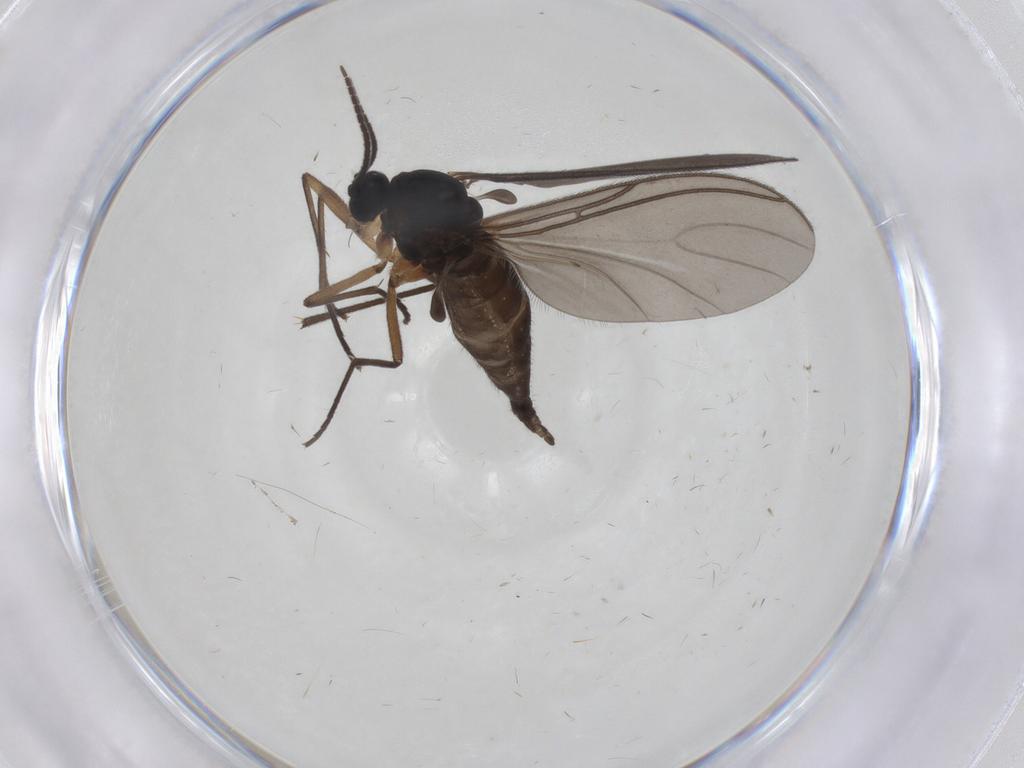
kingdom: Animalia
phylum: Arthropoda
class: Insecta
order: Diptera
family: Sciaridae
